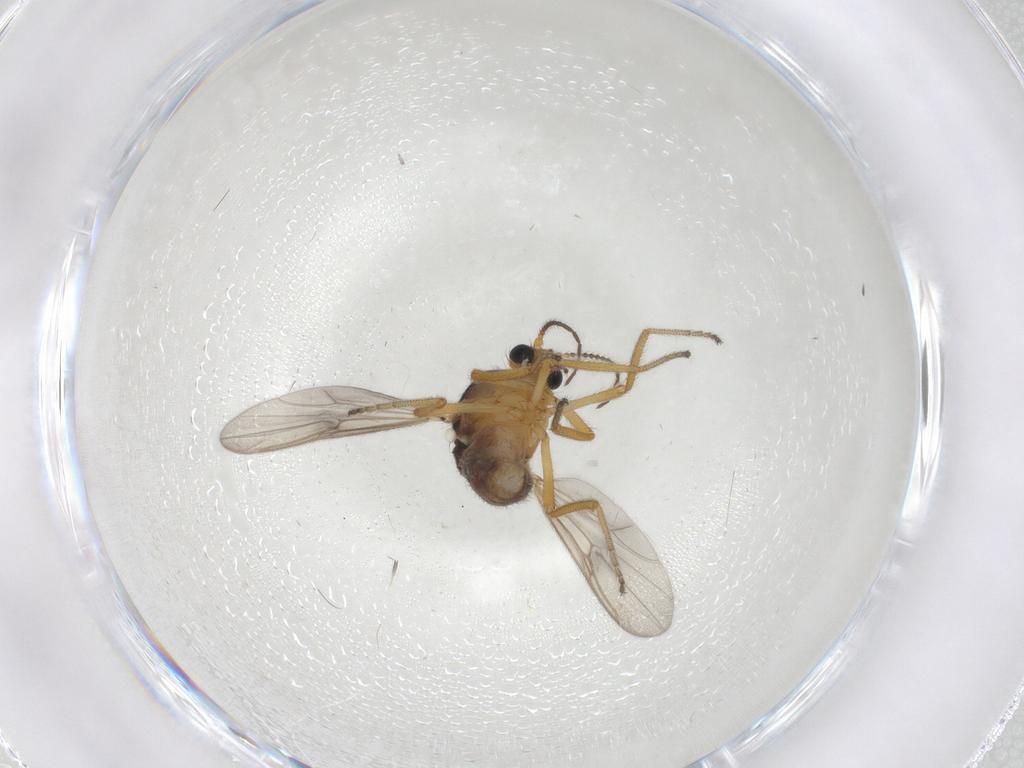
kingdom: Animalia
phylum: Arthropoda
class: Insecta
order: Diptera
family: Ceratopogonidae
